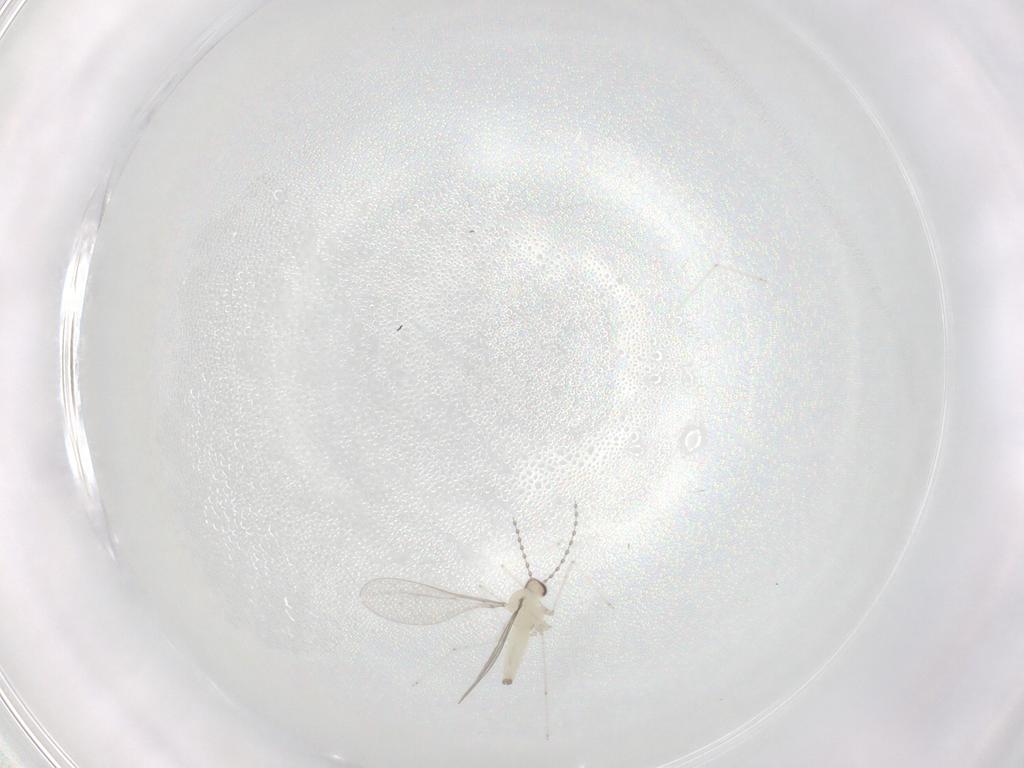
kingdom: Animalia
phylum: Arthropoda
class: Insecta
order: Diptera
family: Cecidomyiidae
